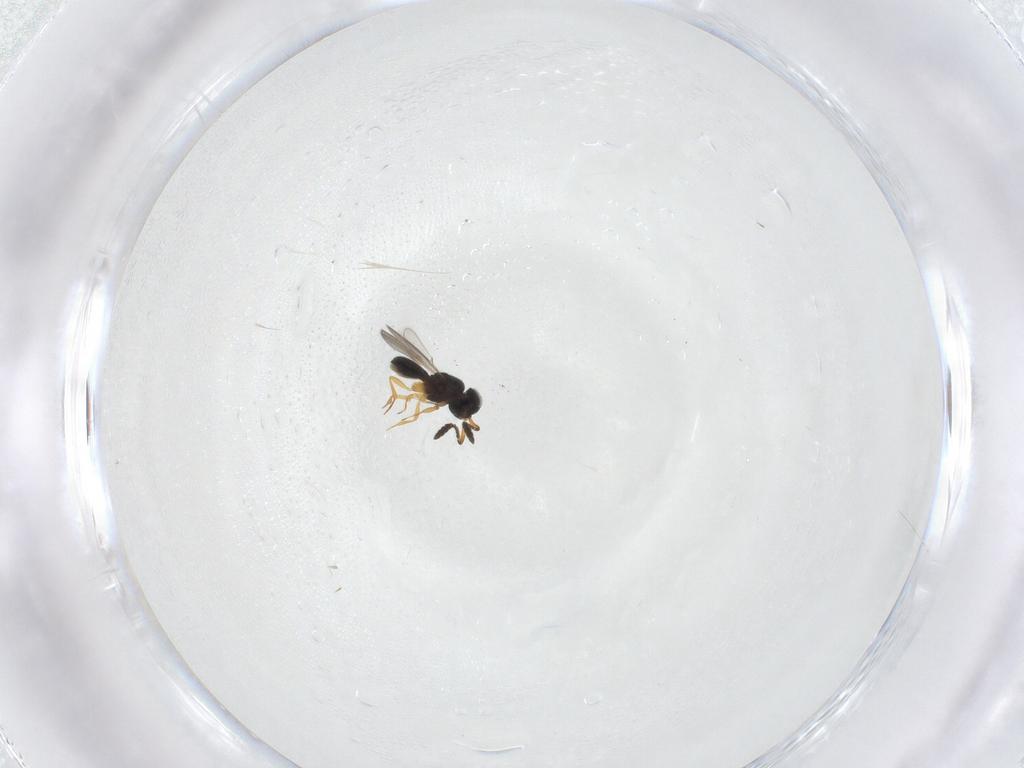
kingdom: Animalia
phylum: Arthropoda
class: Insecta
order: Hymenoptera
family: Scelionidae
